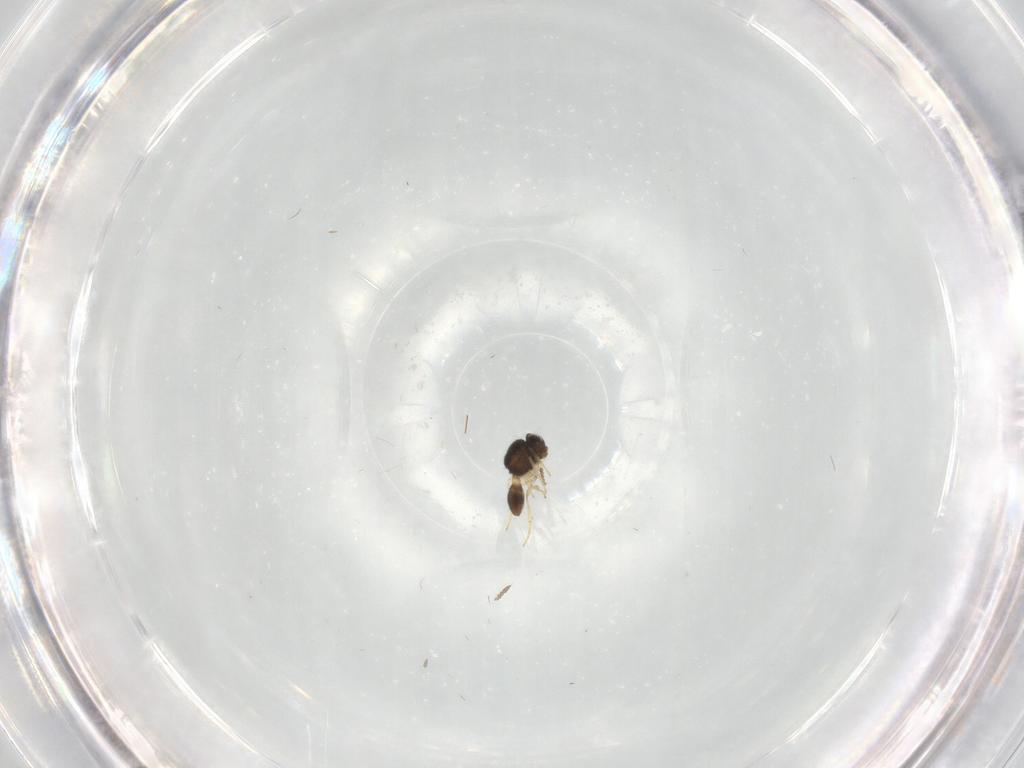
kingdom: Animalia
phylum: Arthropoda
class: Insecta
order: Hymenoptera
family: Scelionidae
